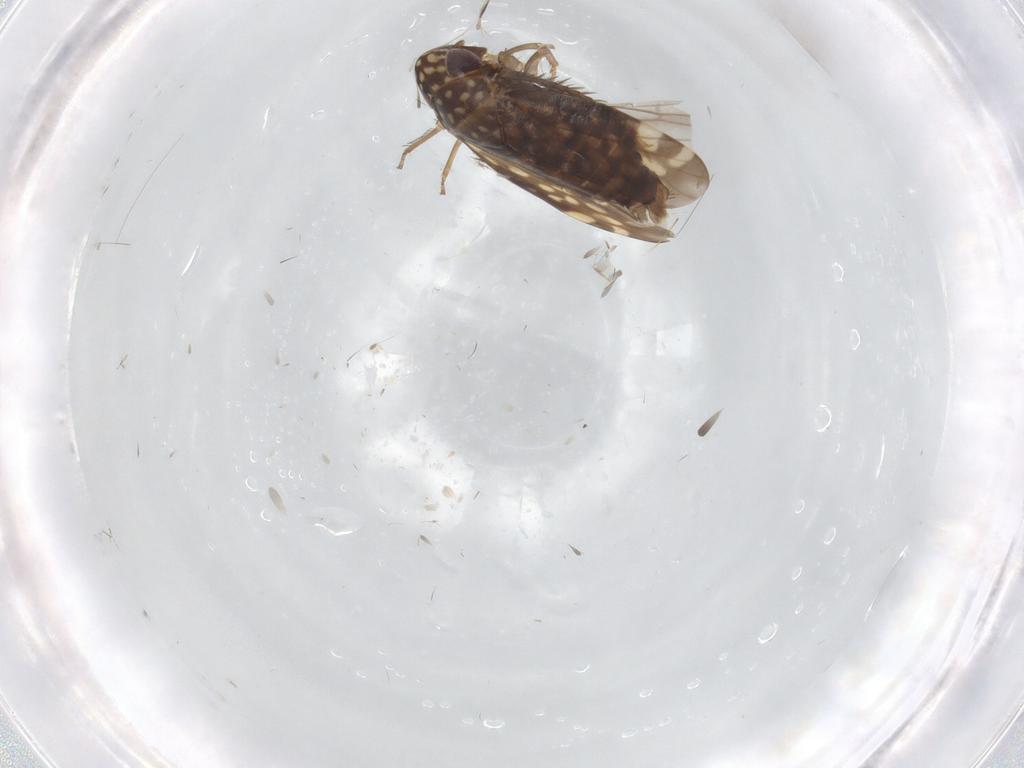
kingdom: Animalia
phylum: Arthropoda
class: Insecta
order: Hemiptera
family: Cicadellidae
